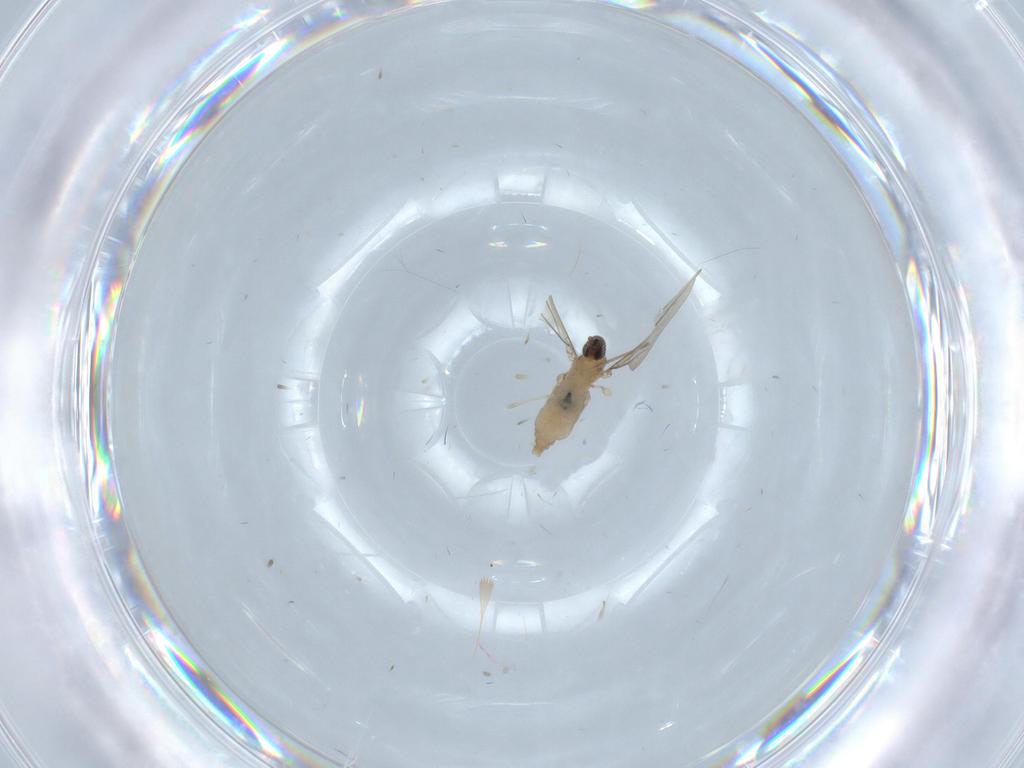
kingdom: Animalia
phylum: Arthropoda
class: Insecta
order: Diptera
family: Cecidomyiidae
